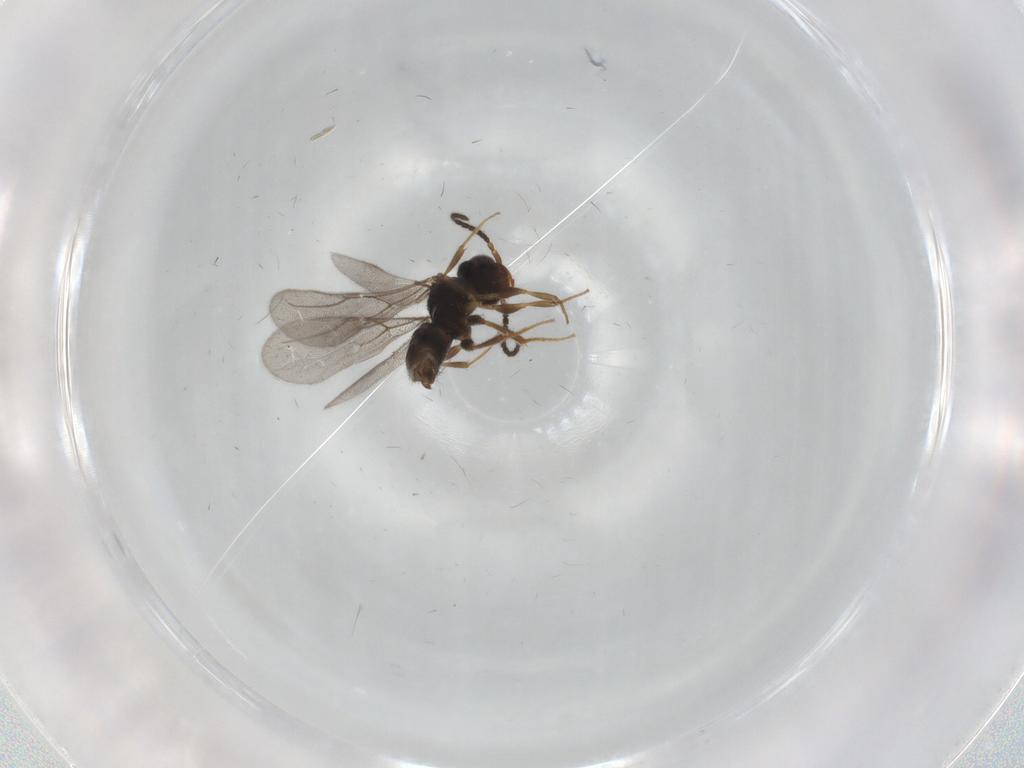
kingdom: Animalia
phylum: Arthropoda
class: Insecta
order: Hymenoptera
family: Bethylidae
